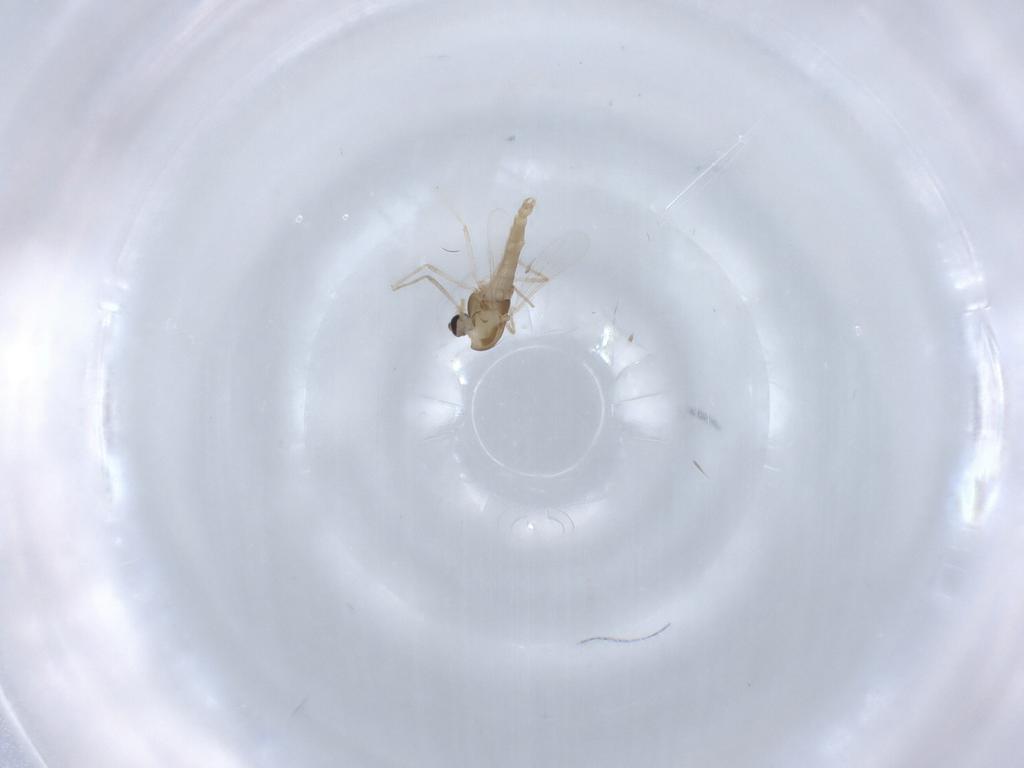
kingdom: Animalia
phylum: Arthropoda
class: Insecta
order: Diptera
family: Chironomidae
